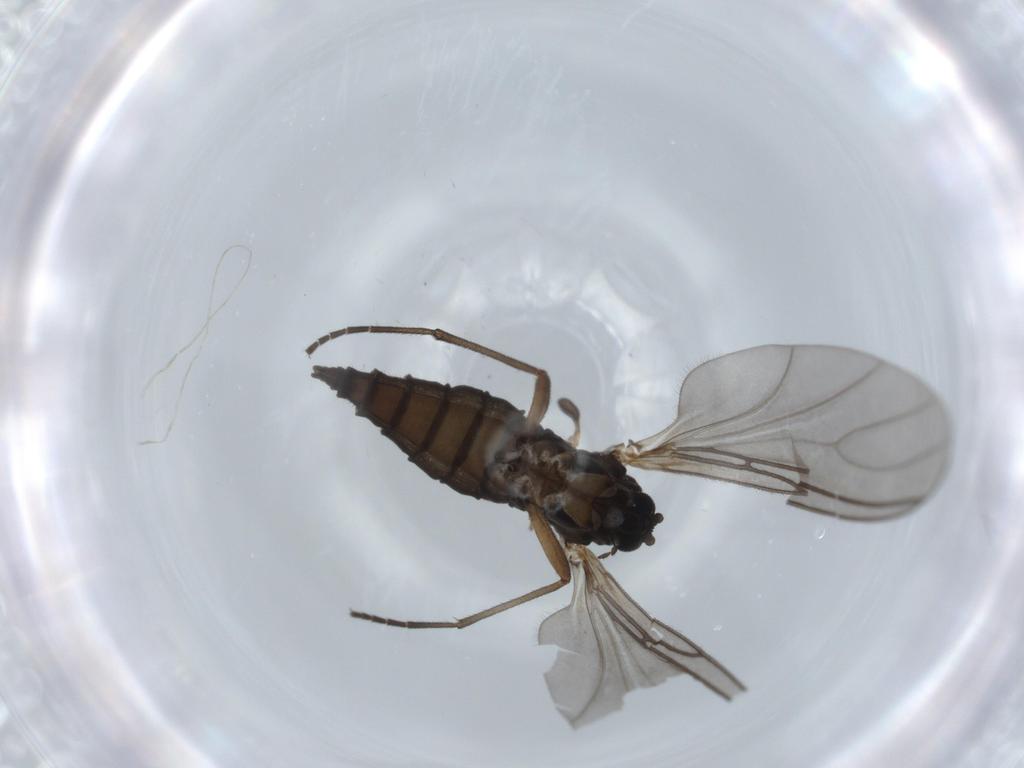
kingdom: Animalia
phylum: Arthropoda
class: Insecta
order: Diptera
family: Sciaridae
